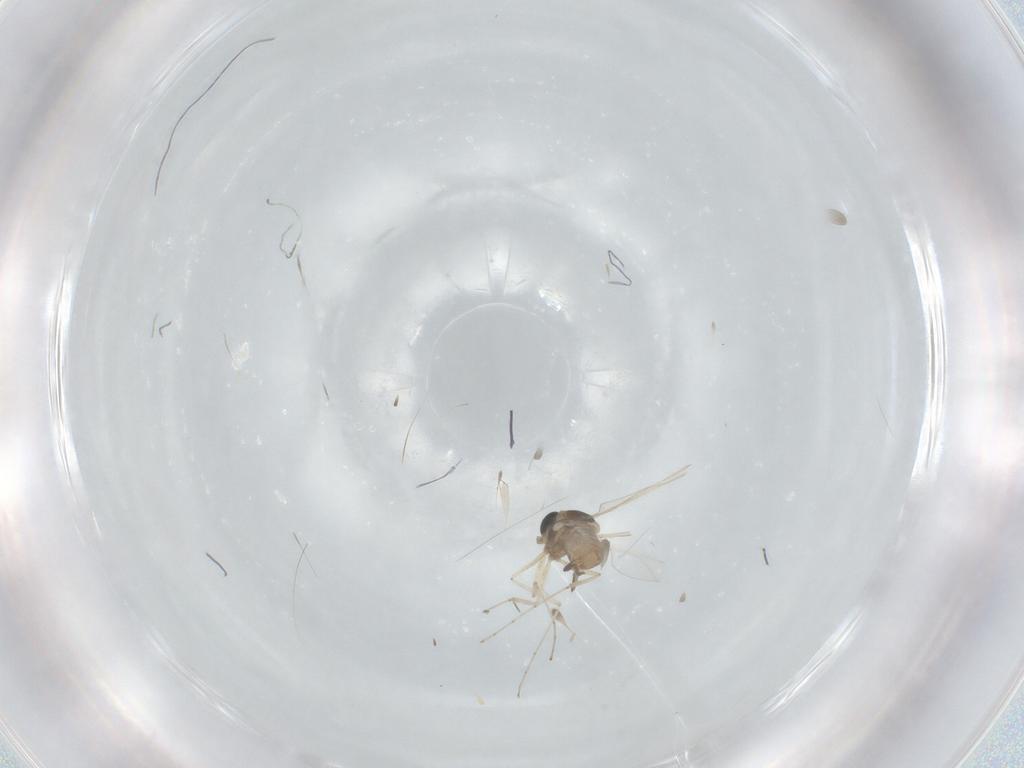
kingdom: Animalia
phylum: Arthropoda
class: Insecta
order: Diptera
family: Cecidomyiidae
